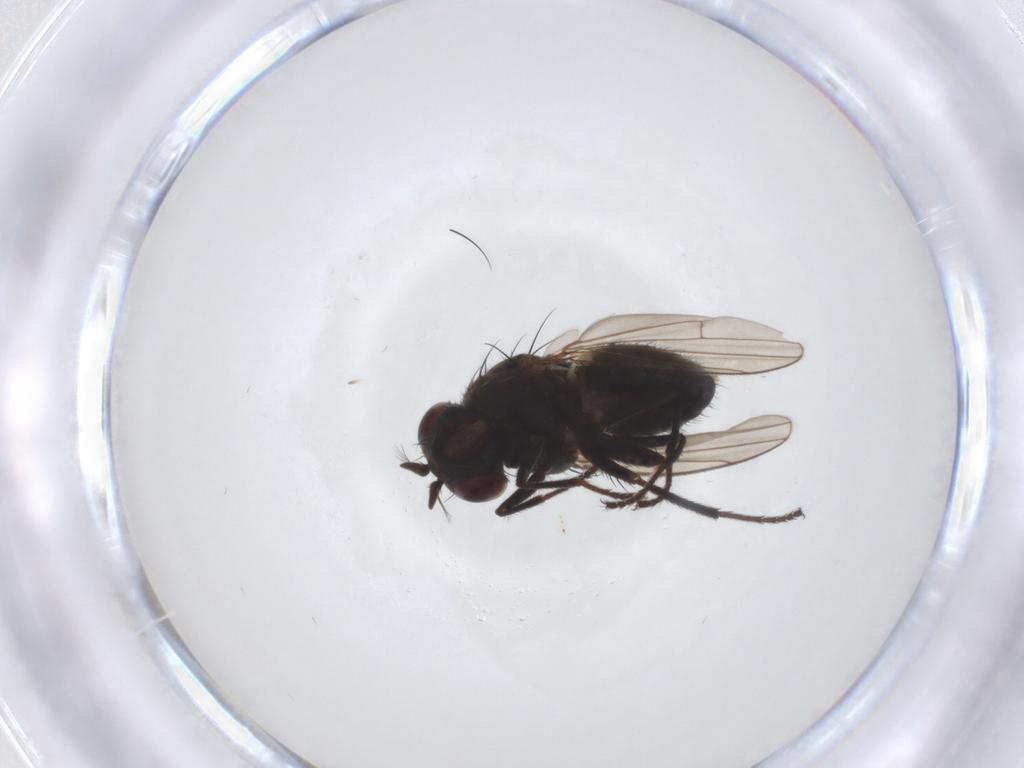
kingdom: Animalia
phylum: Arthropoda
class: Insecta
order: Diptera
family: Ephydridae
